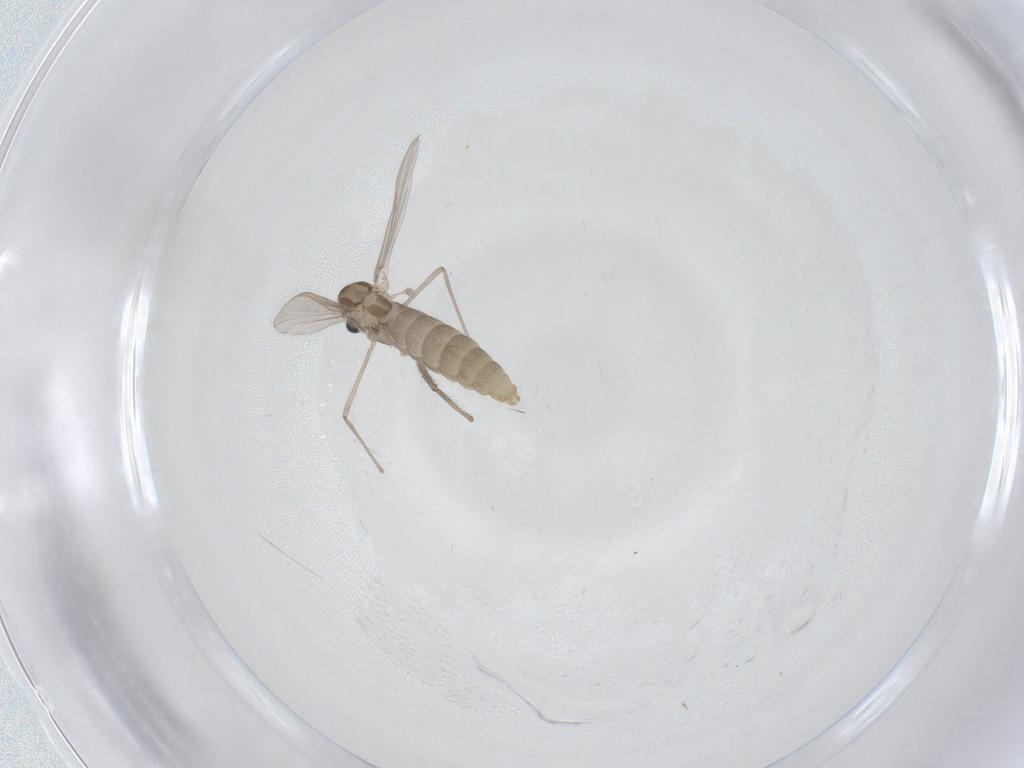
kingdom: Animalia
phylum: Arthropoda
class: Insecta
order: Diptera
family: Chironomidae
